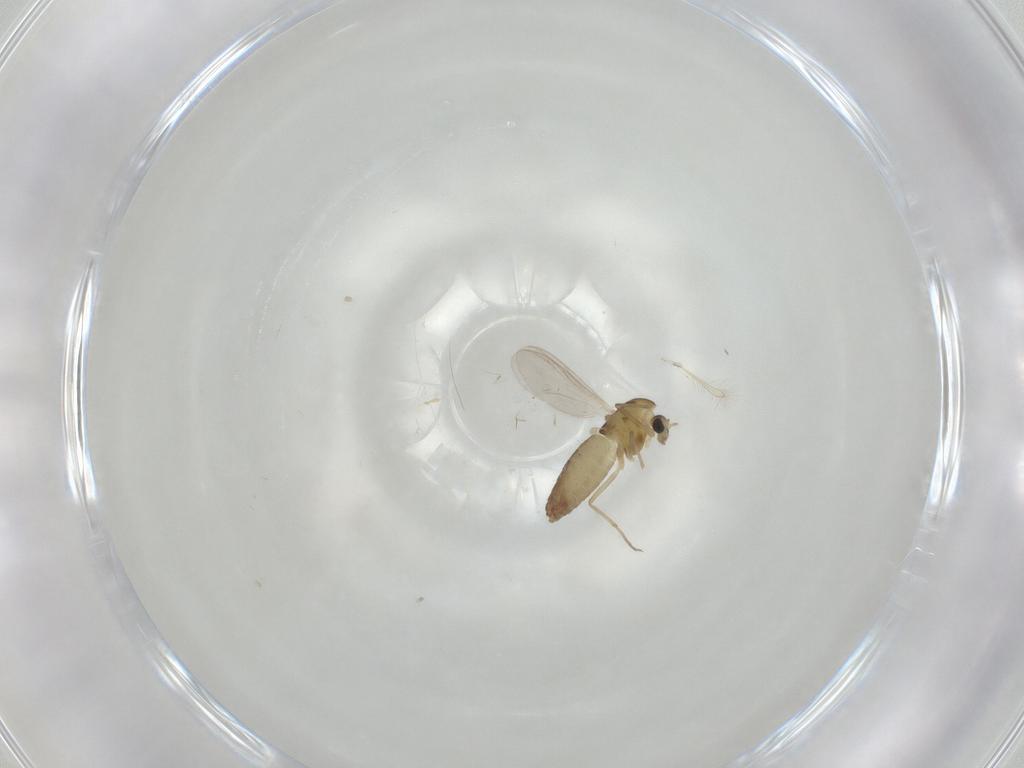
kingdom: Animalia
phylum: Arthropoda
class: Insecta
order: Diptera
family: Chironomidae
